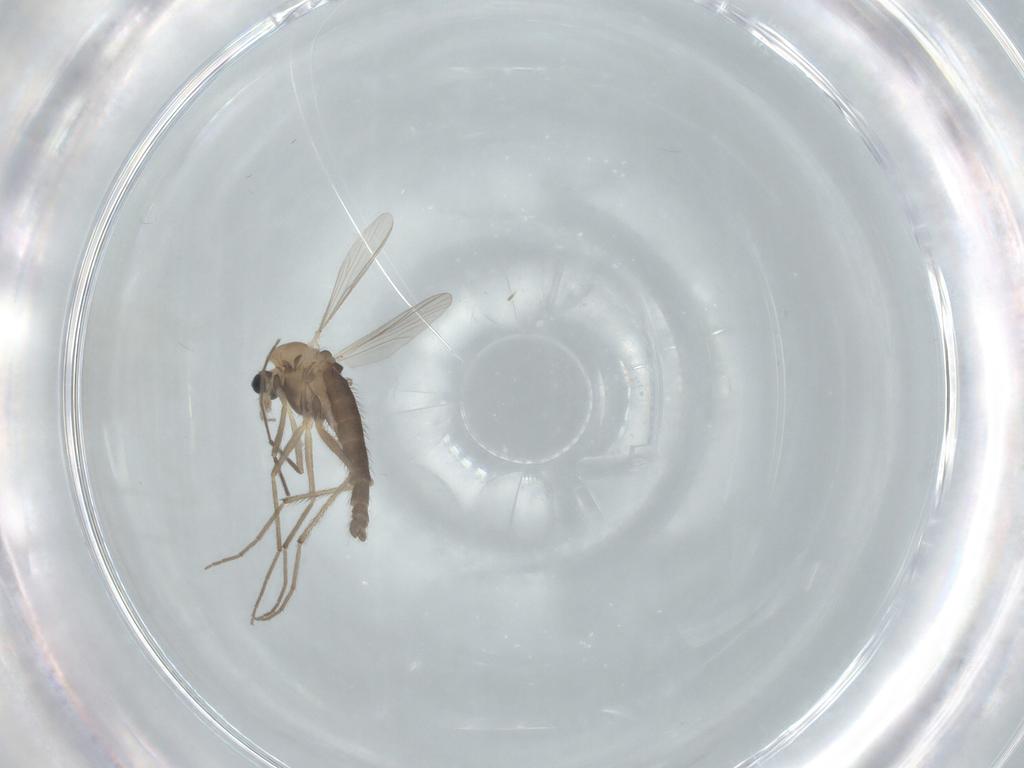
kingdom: Animalia
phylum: Arthropoda
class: Insecta
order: Diptera
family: Chironomidae
